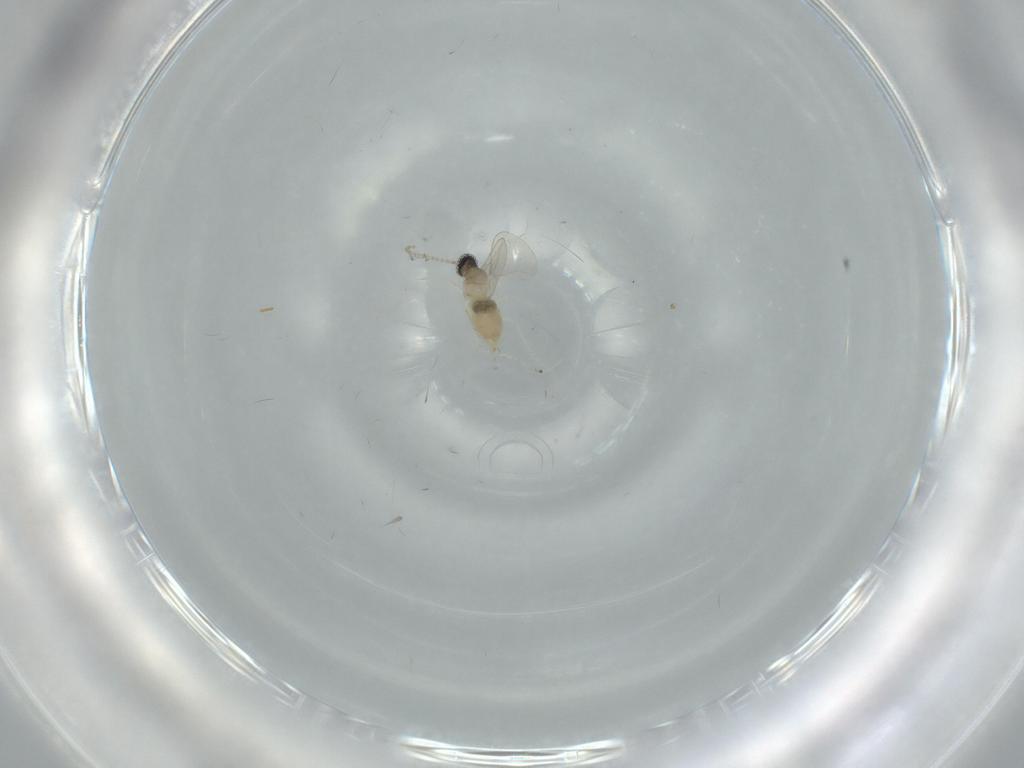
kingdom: Animalia
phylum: Arthropoda
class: Insecta
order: Diptera
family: Cecidomyiidae
